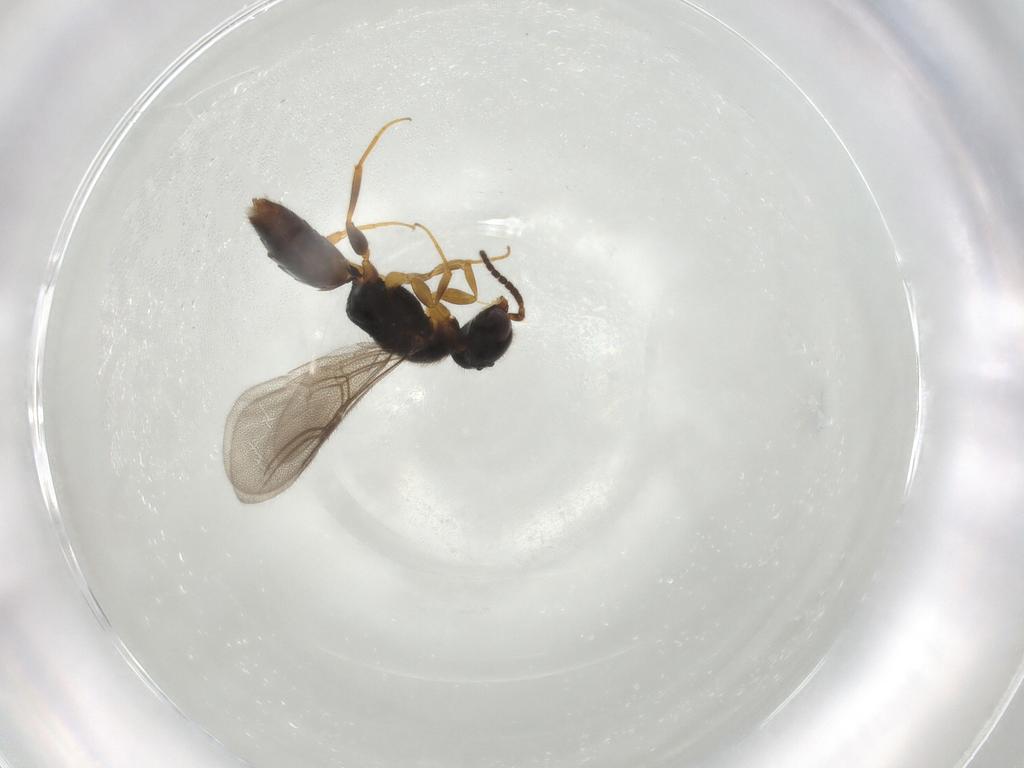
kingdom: Animalia
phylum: Arthropoda
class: Insecta
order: Hymenoptera
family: Bethylidae
